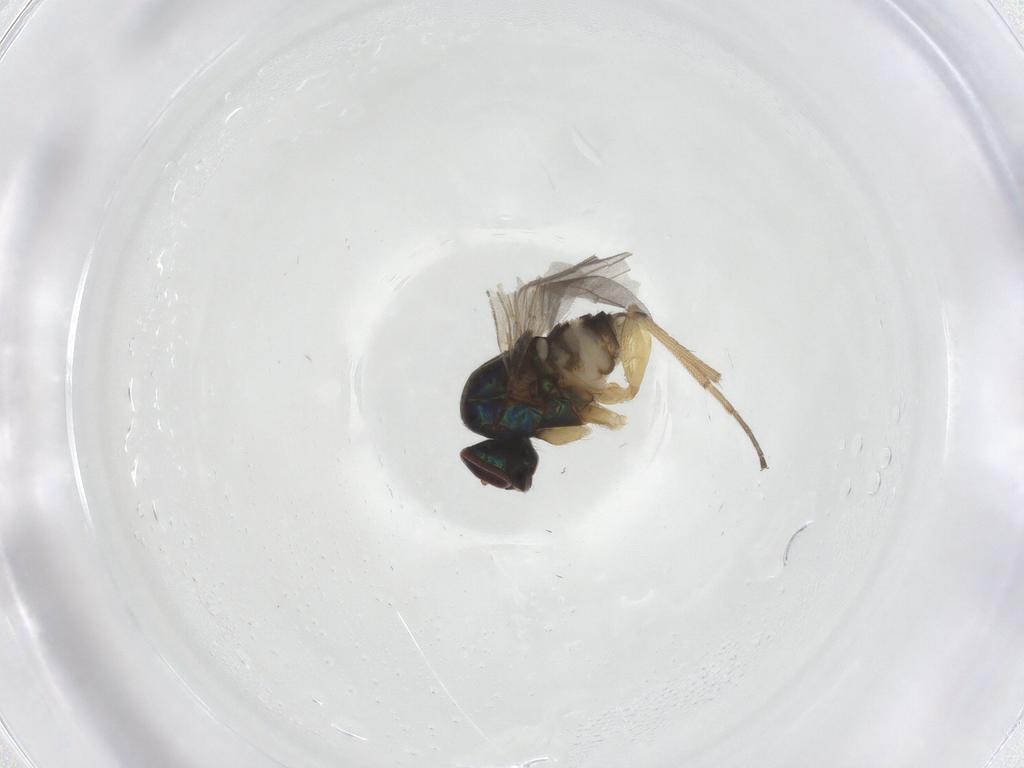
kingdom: Animalia
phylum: Arthropoda
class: Insecta
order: Diptera
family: Dolichopodidae
